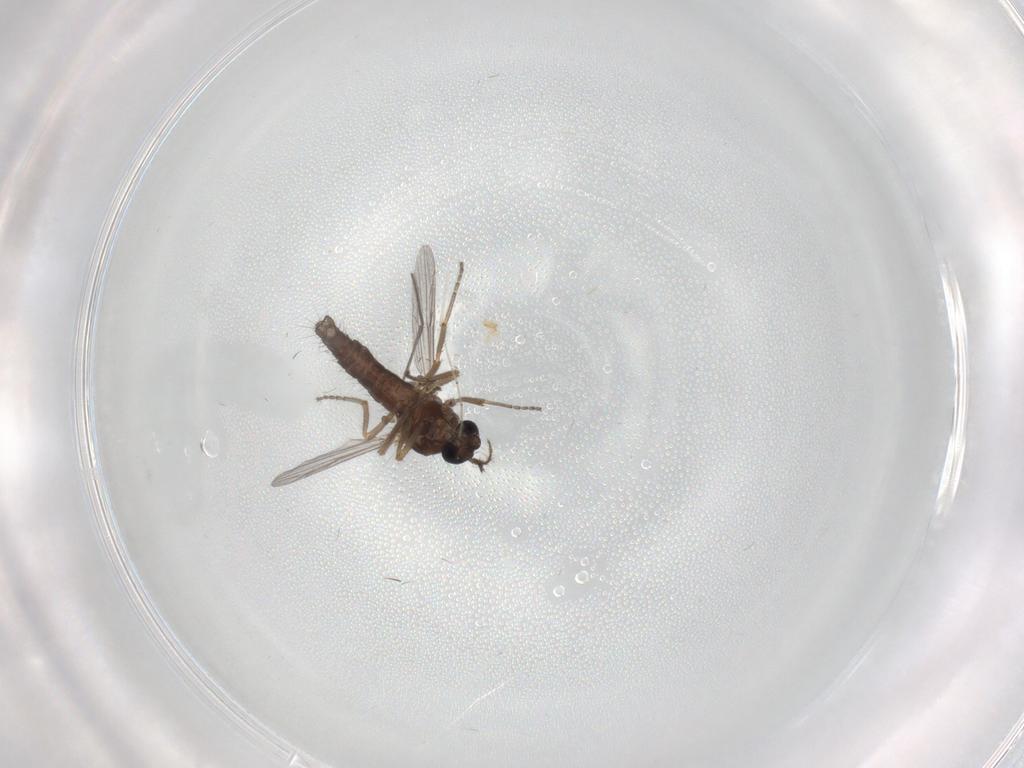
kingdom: Animalia
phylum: Arthropoda
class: Insecta
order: Diptera
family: Ceratopogonidae
